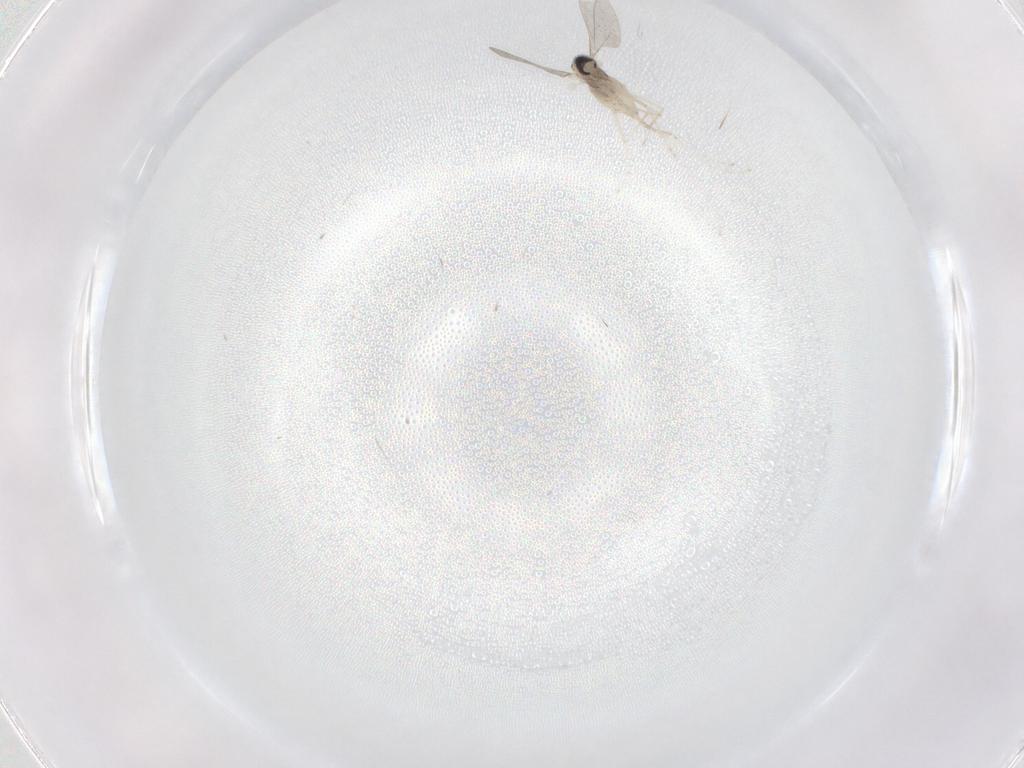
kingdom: Animalia
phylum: Arthropoda
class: Insecta
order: Diptera
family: Cecidomyiidae
